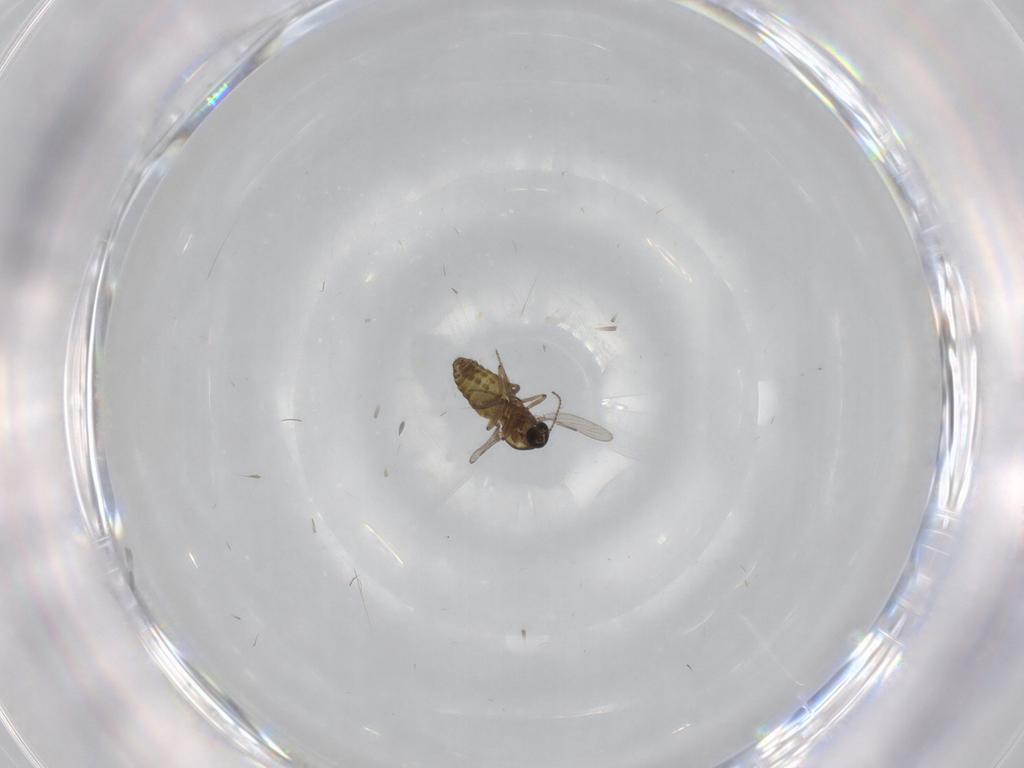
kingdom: Animalia
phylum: Arthropoda
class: Insecta
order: Diptera
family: Ceratopogonidae
